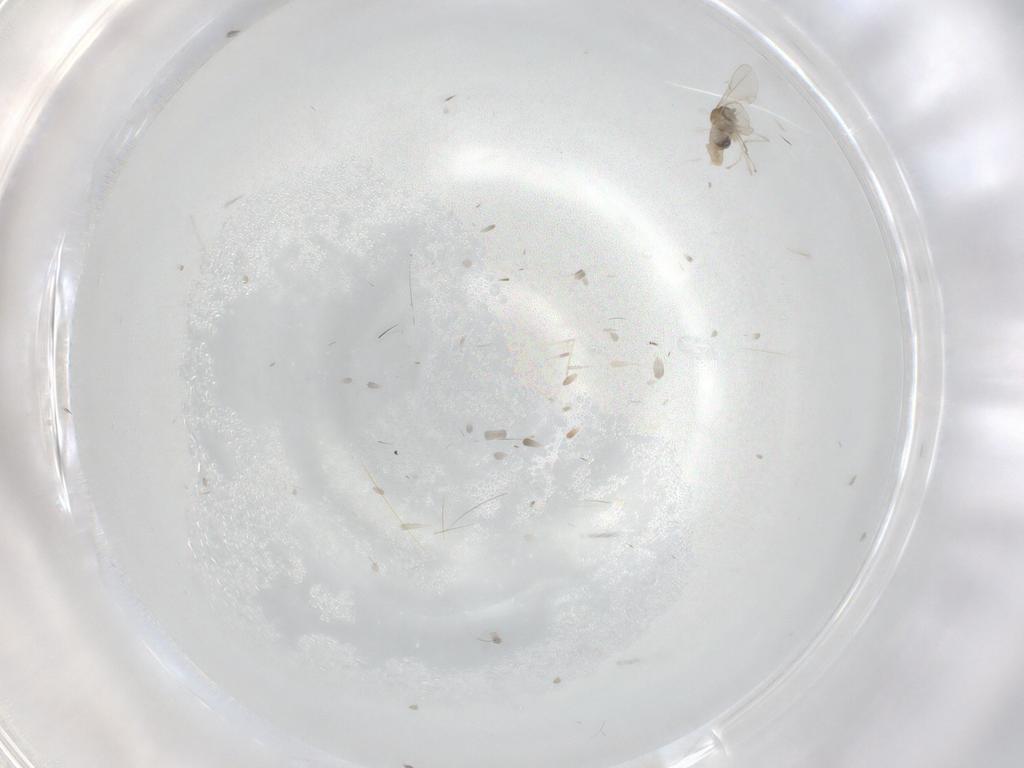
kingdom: Animalia
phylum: Arthropoda
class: Insecta
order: Diptera
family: Cecidomyiidae
